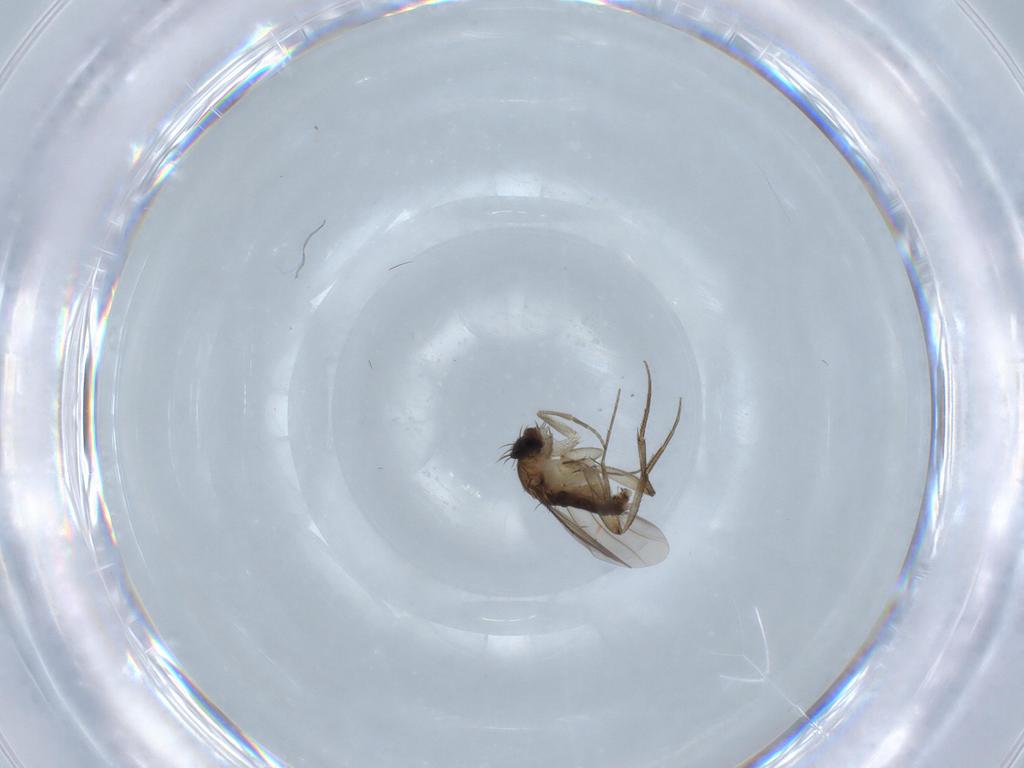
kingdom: Animalia
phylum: Arthropoda
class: Insecta
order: Diptera
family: Phoridae
